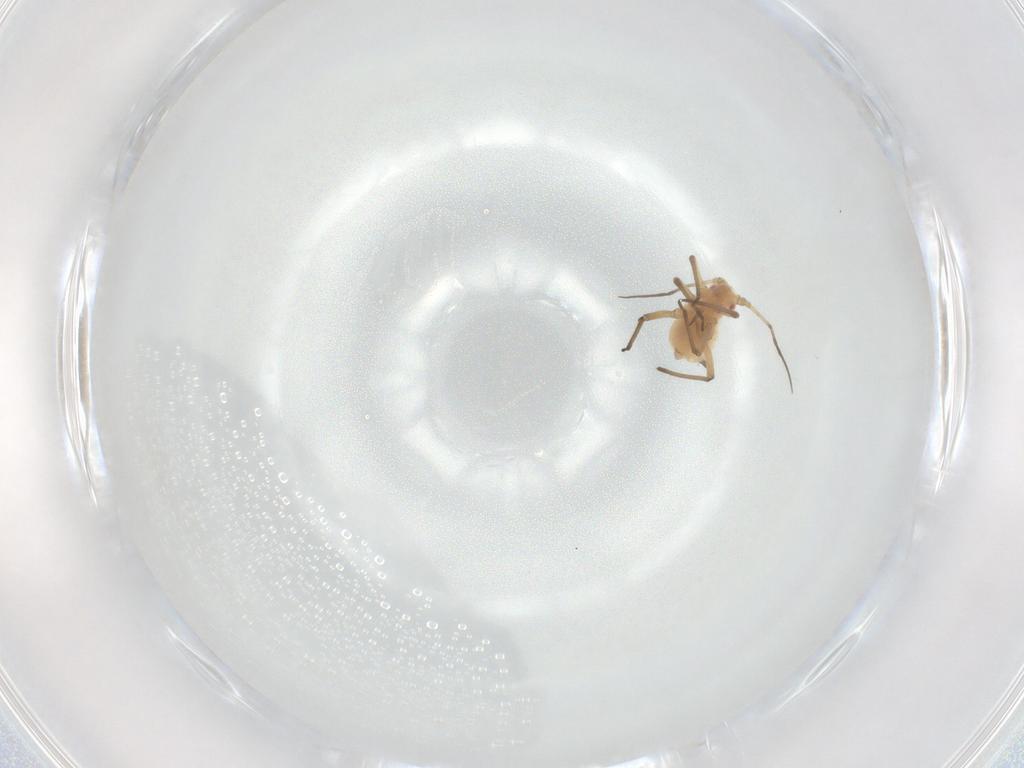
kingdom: Animalia
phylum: Arthropoda
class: Insecta
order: Hemiptera
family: Aphididae
